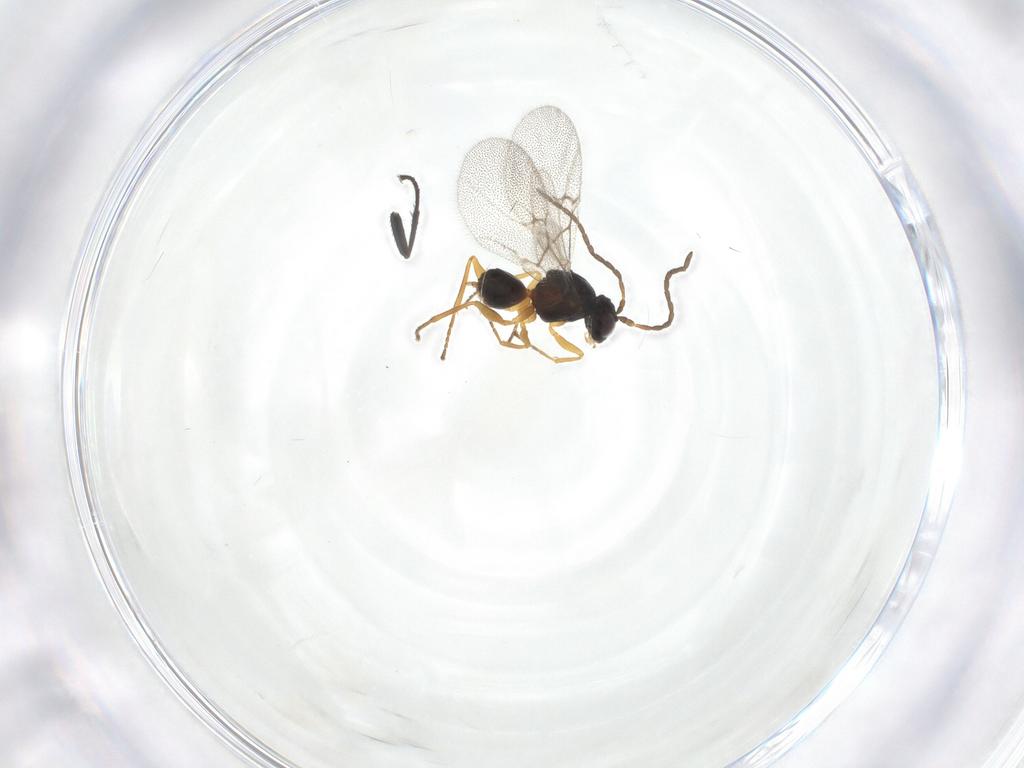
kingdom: Animalia
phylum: Arthropoda
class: Insecta
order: Hymenoptera
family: Cynipidae
